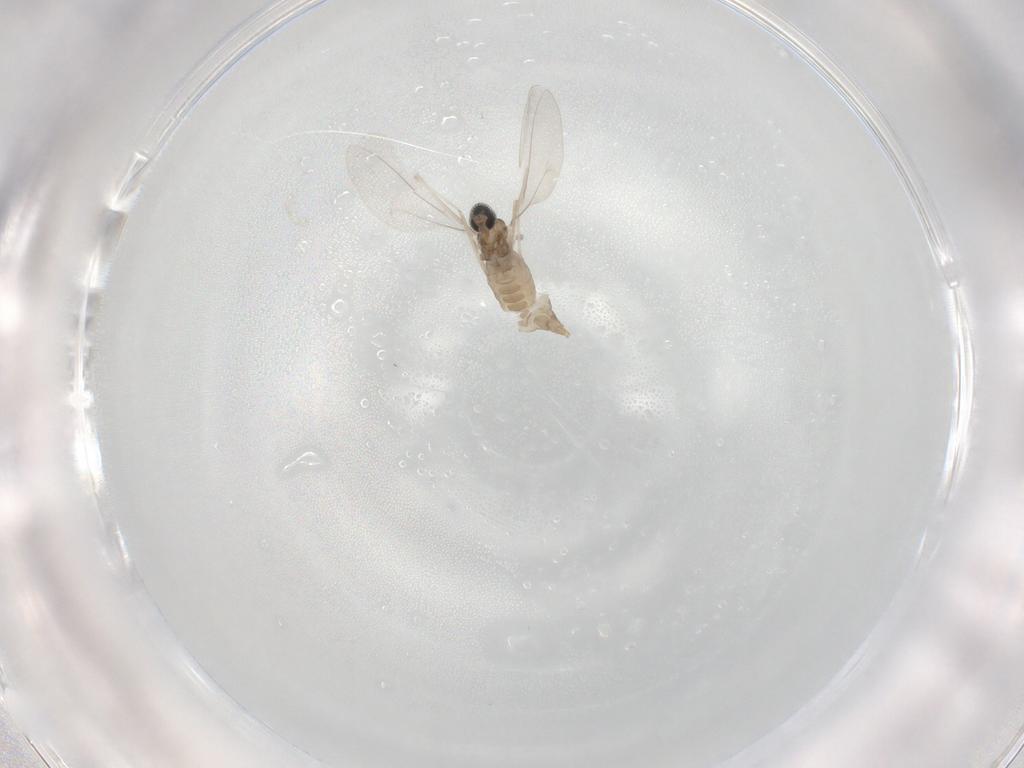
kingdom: Animalia
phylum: Arthropoda
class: Insecta
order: Diptera
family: Cecidomyiidae
